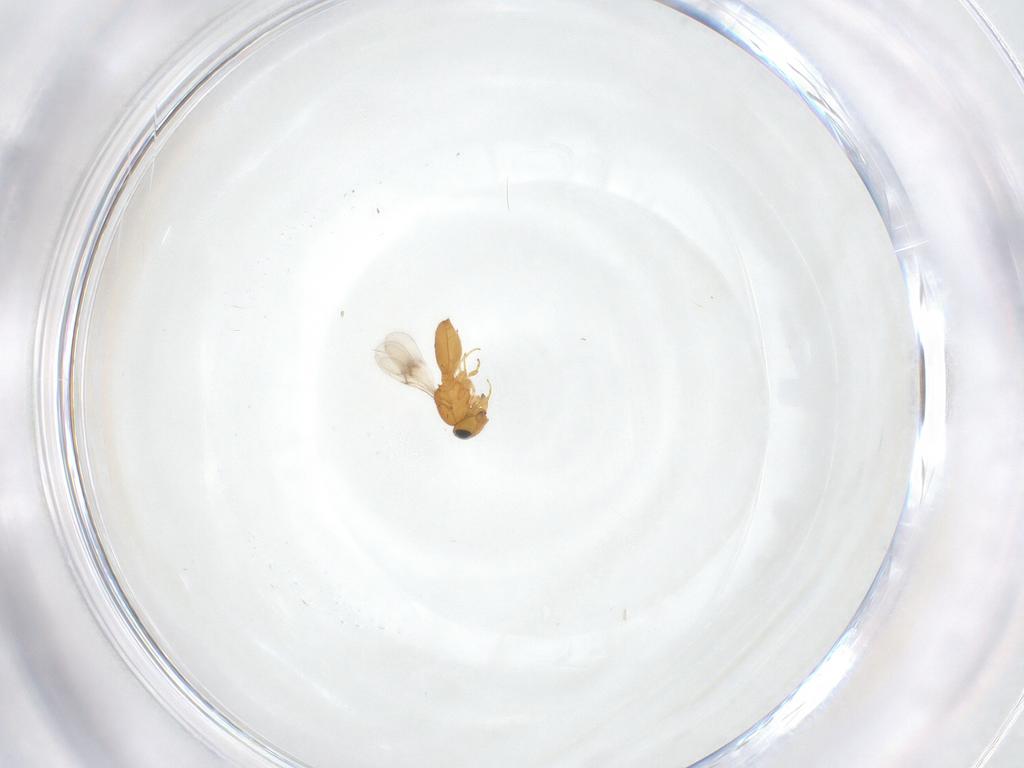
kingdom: Animalia
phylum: Arthropoda
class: Insecta
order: Hymenoptera
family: Scelionidae
